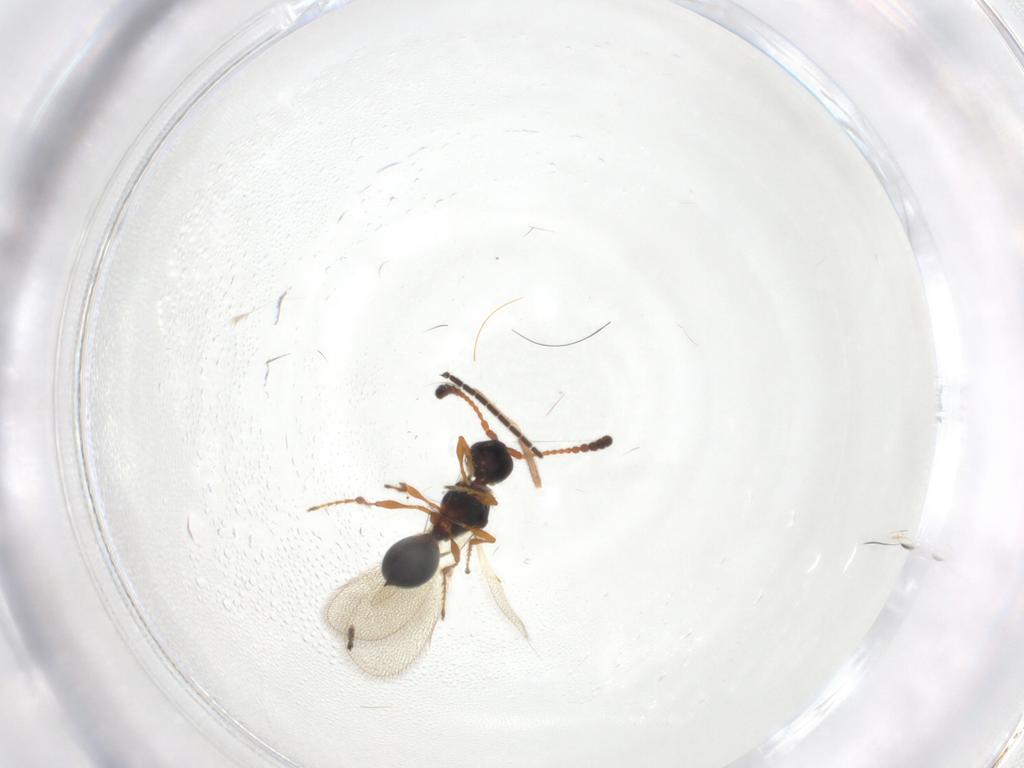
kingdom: Animalia
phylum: Arthropoda
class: Insecta
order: Hymenoptera
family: Diapriidae
